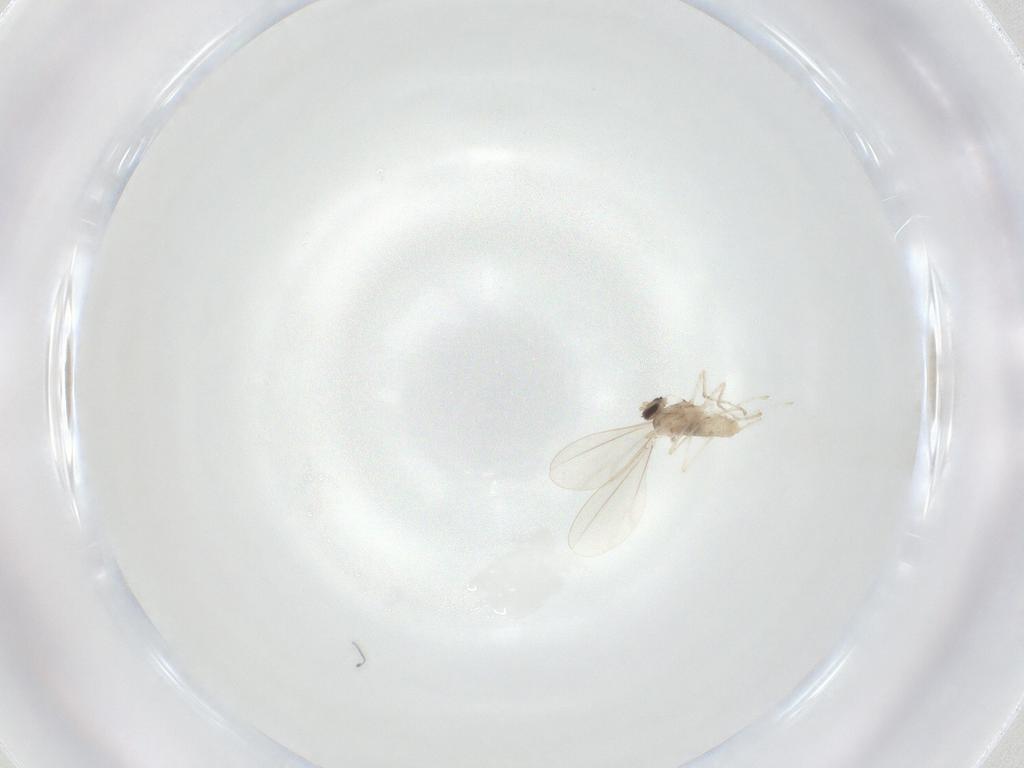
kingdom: Animalia
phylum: Arthropoda
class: Insecta
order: Diptera
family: Cecidomyiidae
